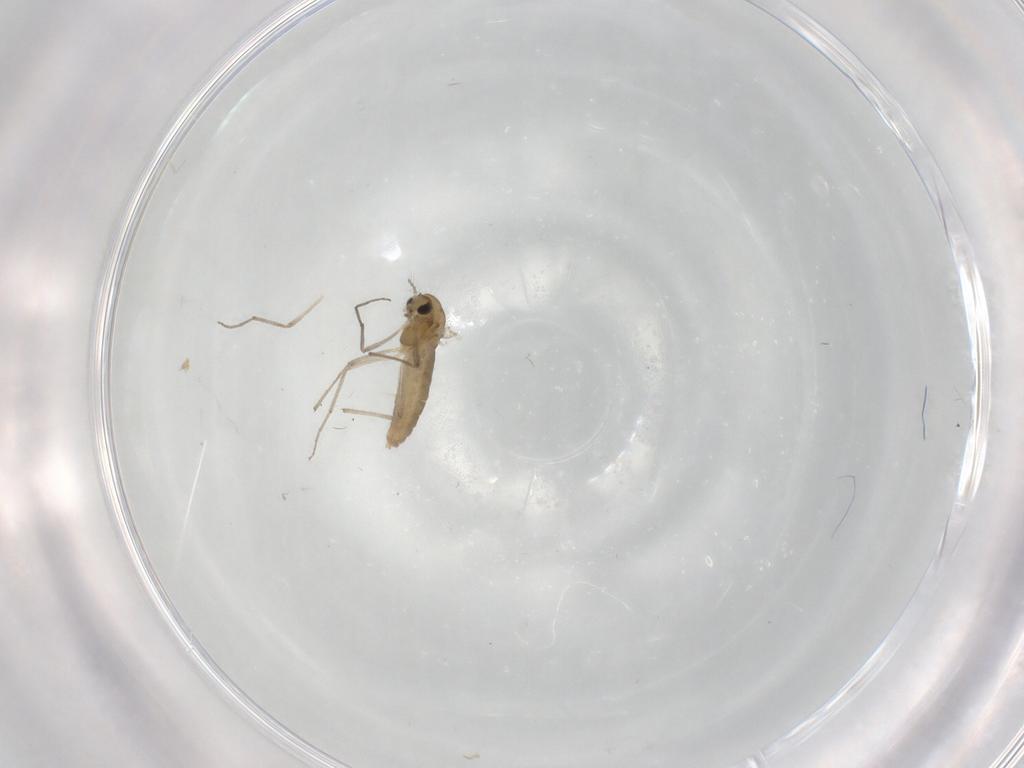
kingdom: Animalia
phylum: Arthropoda
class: Insecta
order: Diptera
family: Chironomidae
